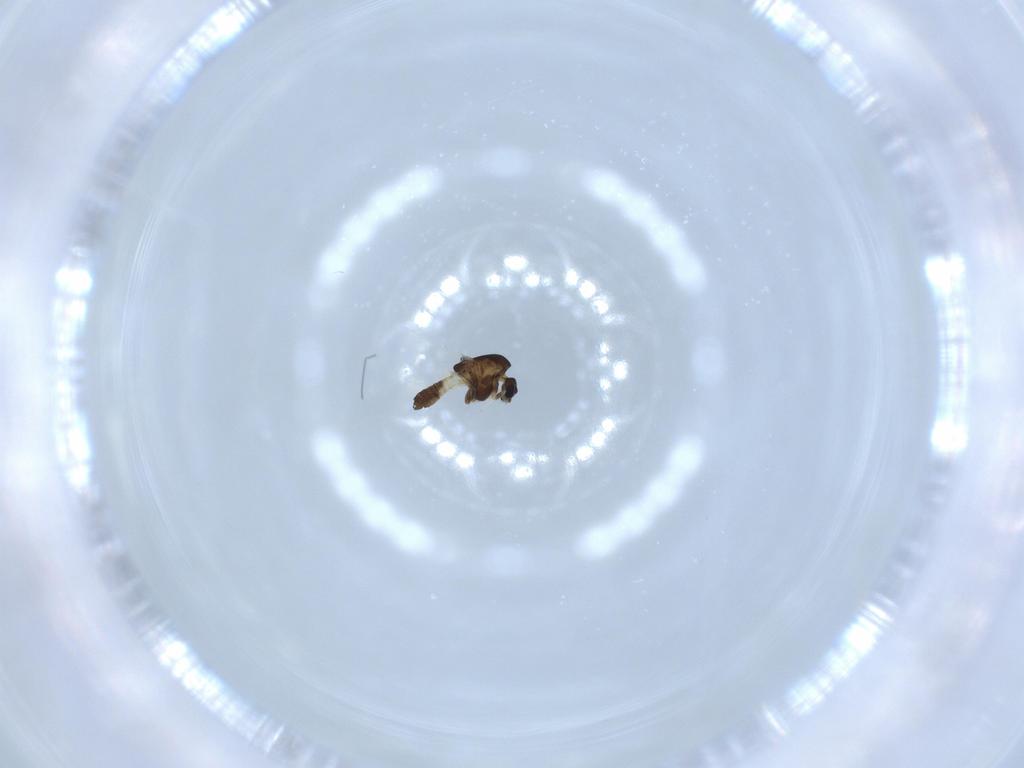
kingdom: Animalia
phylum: Arthropoda
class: Insecta
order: Diptera
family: Chironomidae
